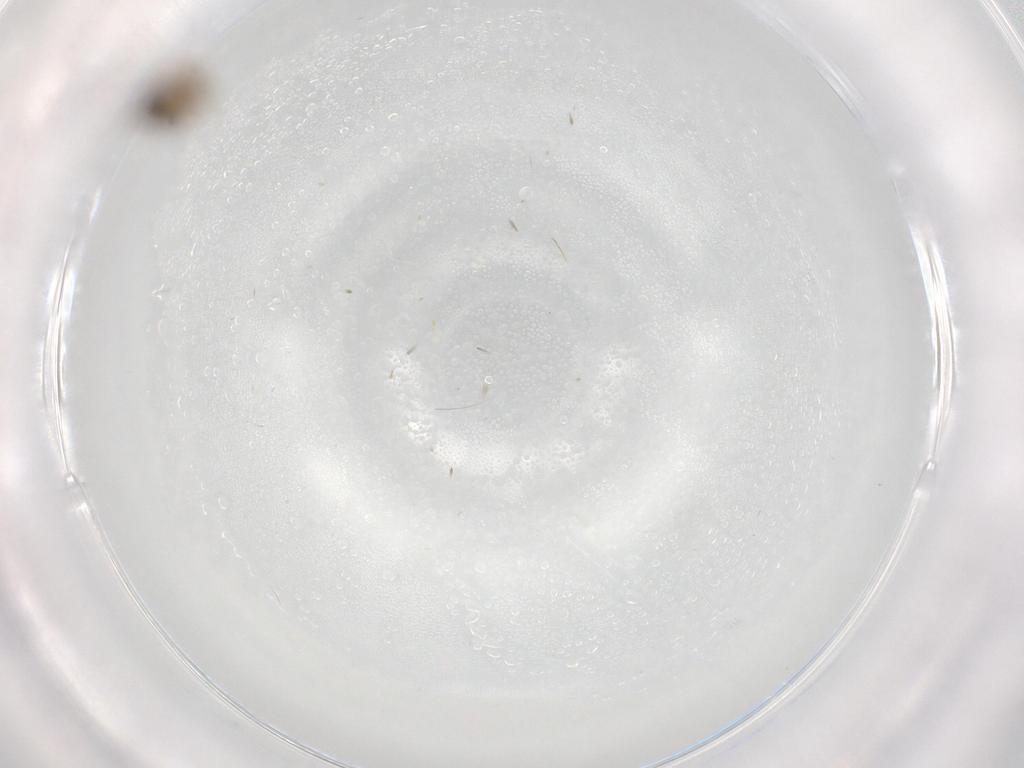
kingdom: Animalia
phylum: Arthropoda
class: Insecta
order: Diptera
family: Psychodidae
